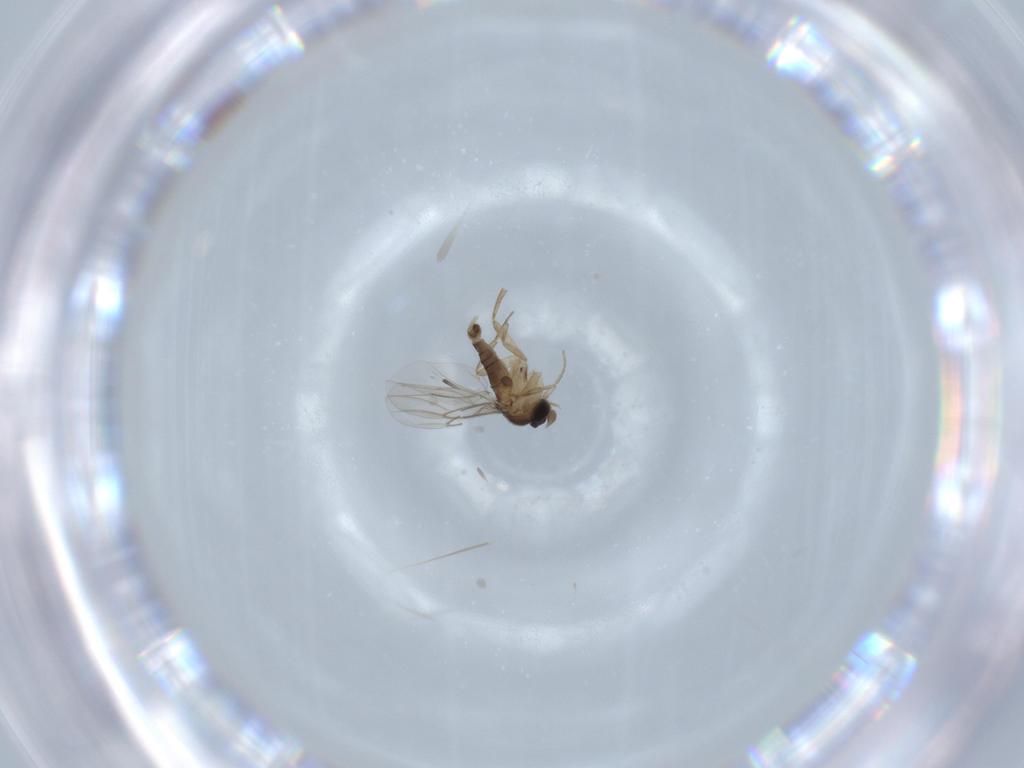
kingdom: Animalia
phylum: Arthropoda
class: Insecta
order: Diptera
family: Phoridae
